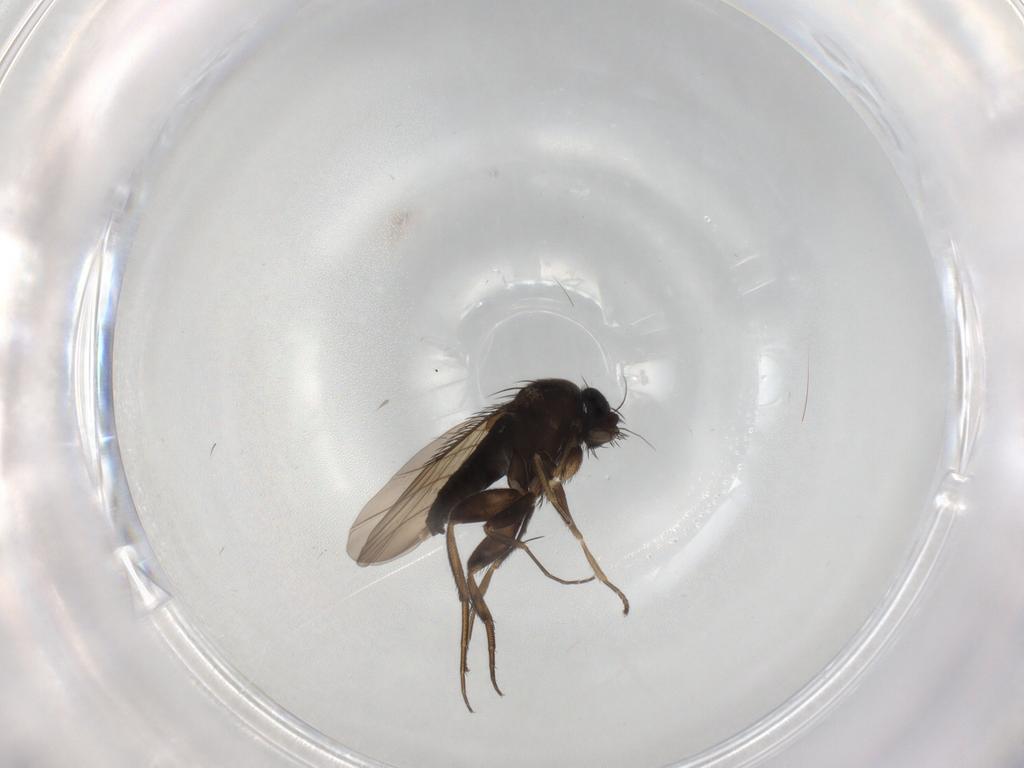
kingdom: Animalia
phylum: Arthropoda
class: Insecta
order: Diptera
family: Phoridae
